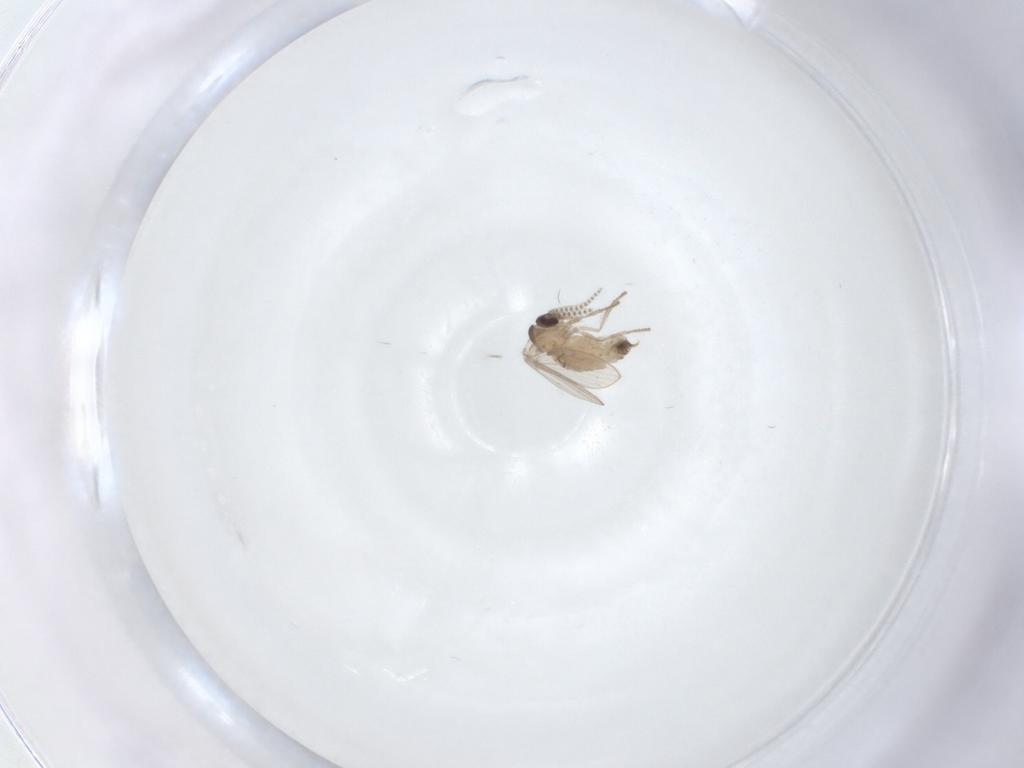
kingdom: Animalia
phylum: Arthropoda
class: Insecta
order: Diptera
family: Psychodidae
